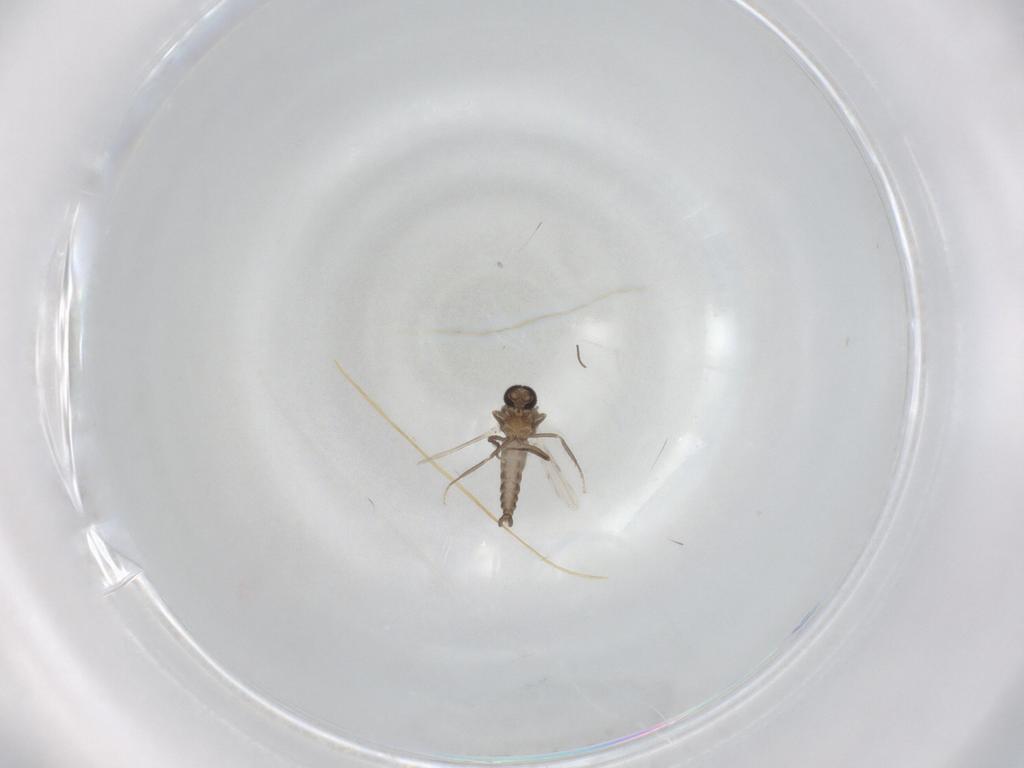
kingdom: Animalia
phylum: Arthropoda
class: Insecta
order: Diptera
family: Ceratopogonidae
